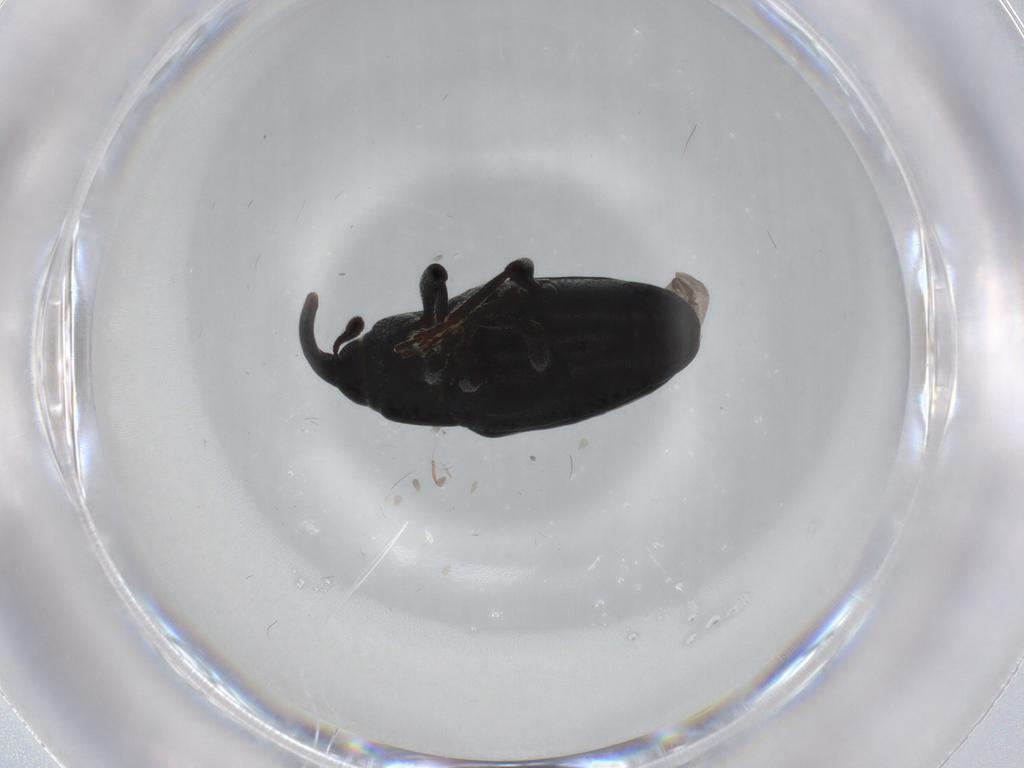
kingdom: Animalia
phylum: Arthropoda
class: Insecta
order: Coleoptera
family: Curculionidae
